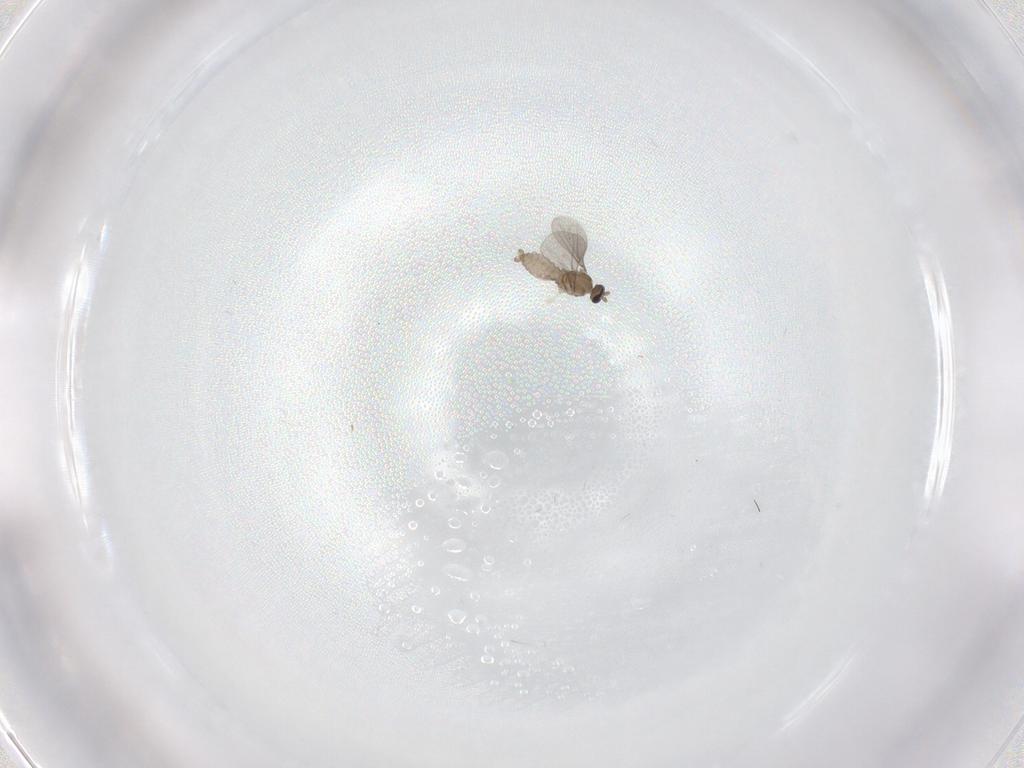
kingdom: Animalia
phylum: Arthropoda
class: Insecta
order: Diptera
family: Cecidomyiidae
